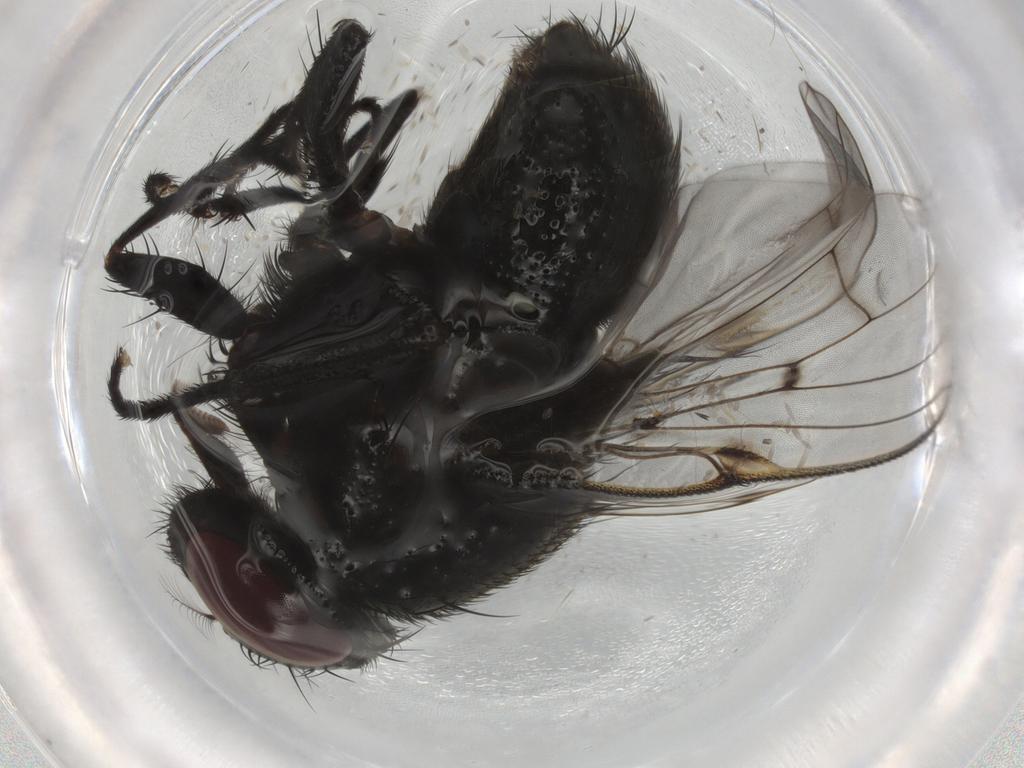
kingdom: Animalia
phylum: Arthropoda
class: Insecta
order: Diptera
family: Muscidae
